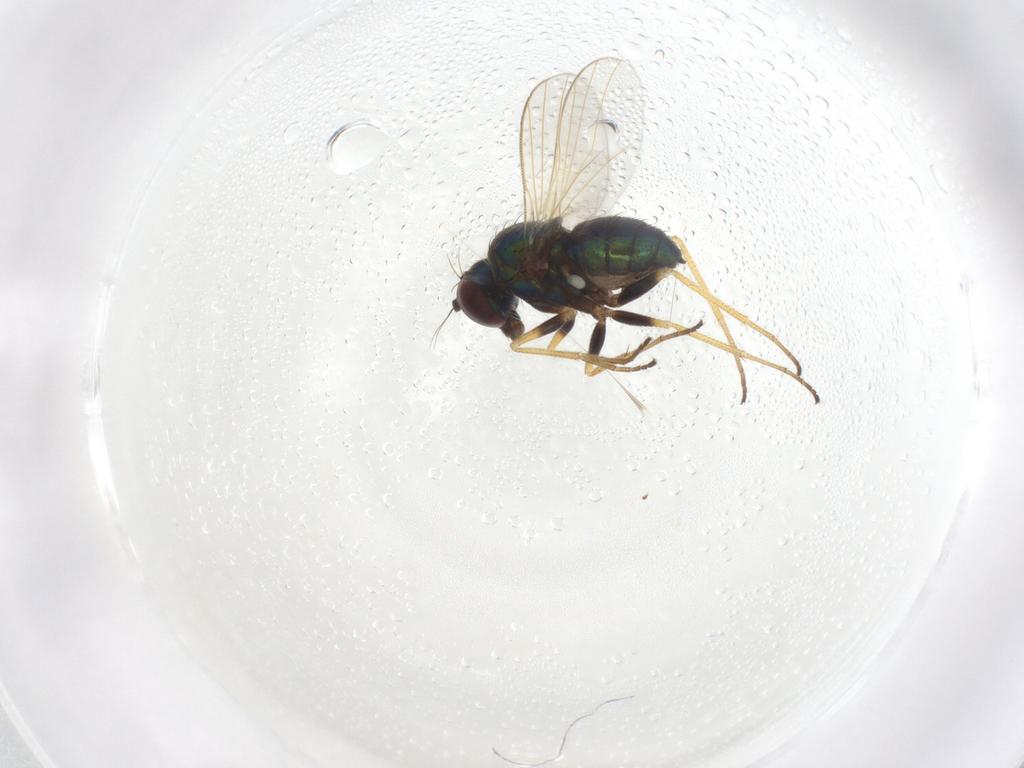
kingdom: Animalia
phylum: Arthropoda
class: Insecta
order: Diptera
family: Dolichopodidae
